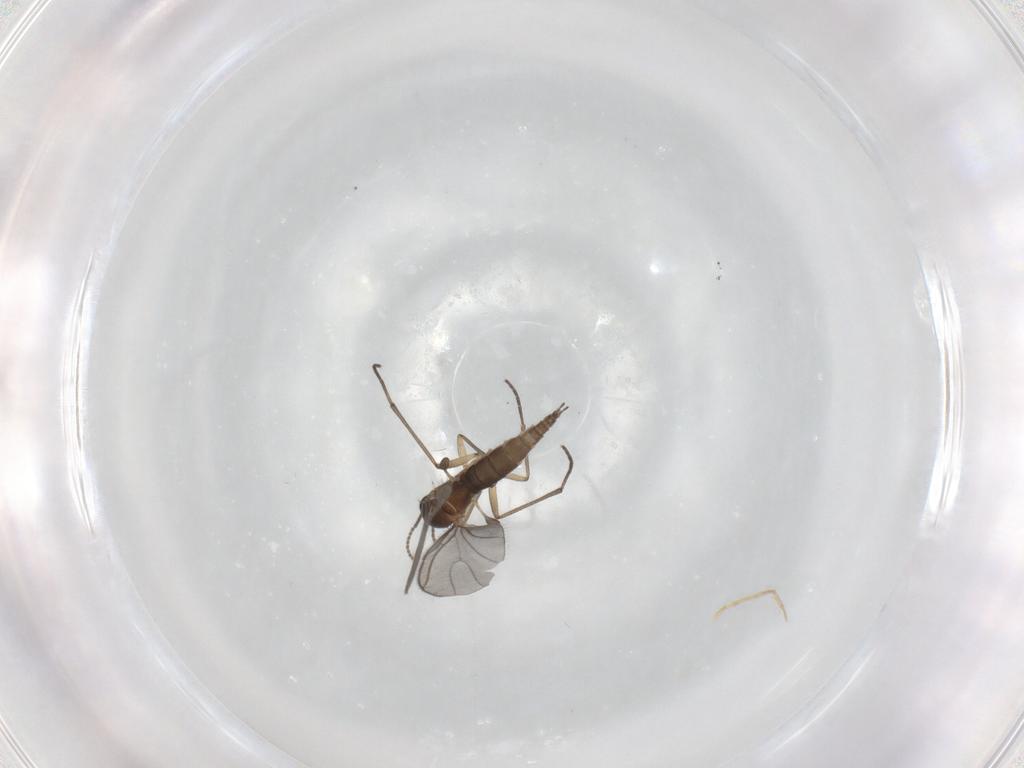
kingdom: Animalia
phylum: Arthropoda
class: Insecta
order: Diptera
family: Sciaridae
